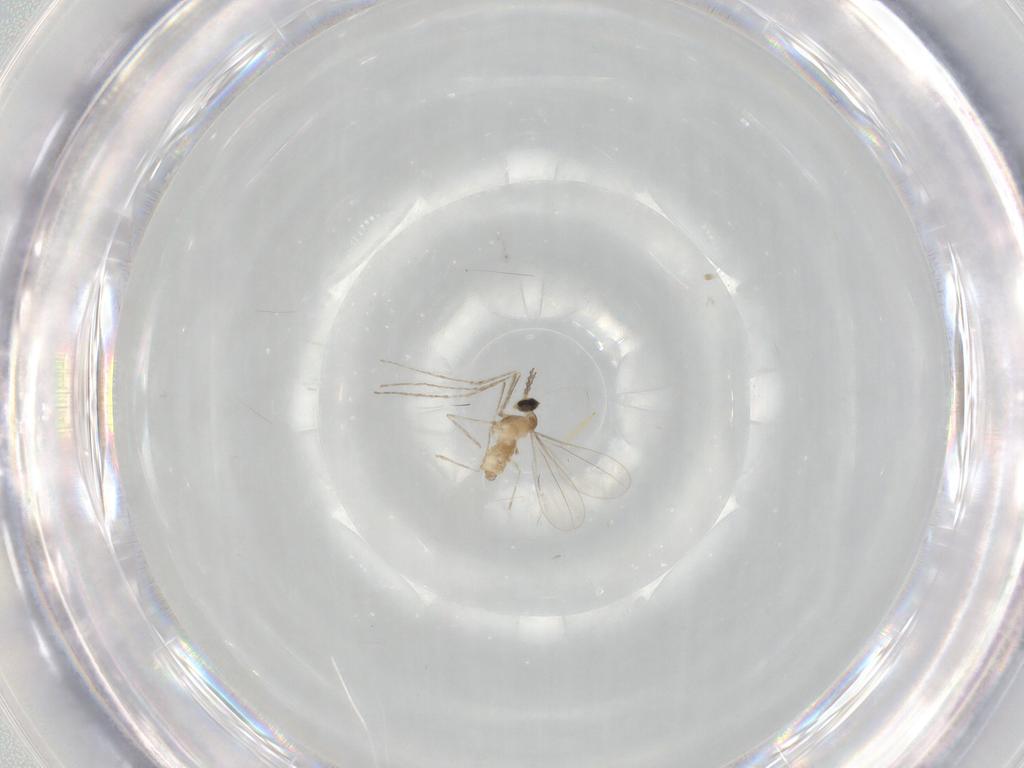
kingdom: Animalia
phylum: Arthropoda
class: Insecta
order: Diptera
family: Cecidomyiidae
